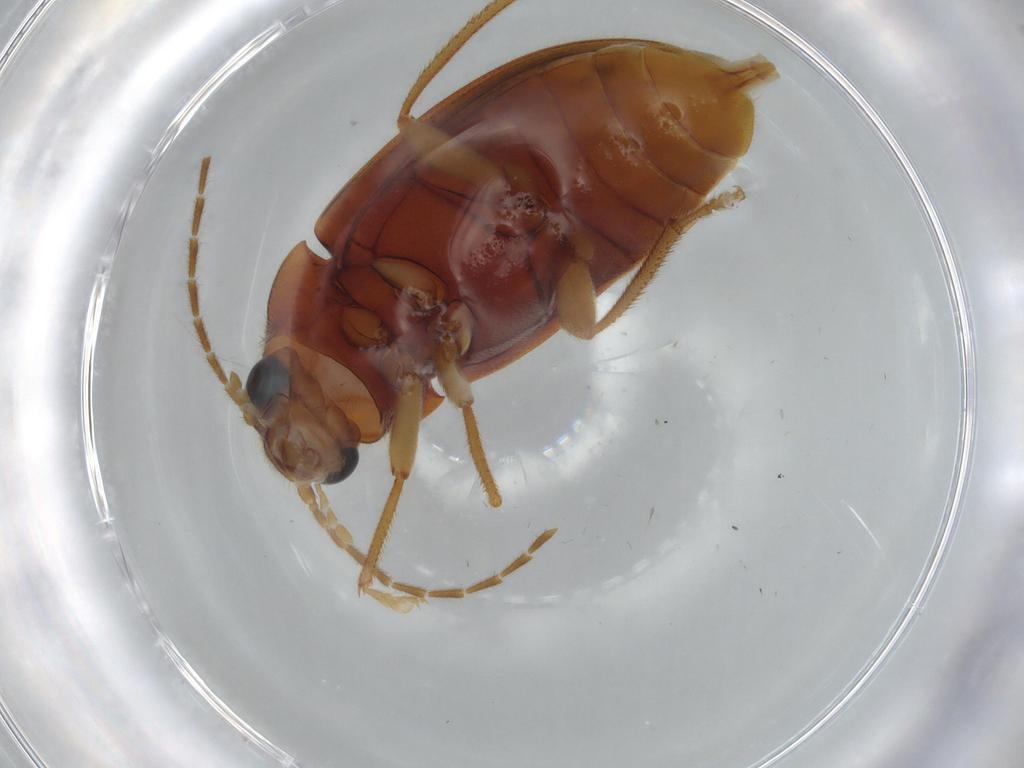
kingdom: Animalia
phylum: Arthropoda
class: Insecta
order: Coleoptera
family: Ptilodactylidae
